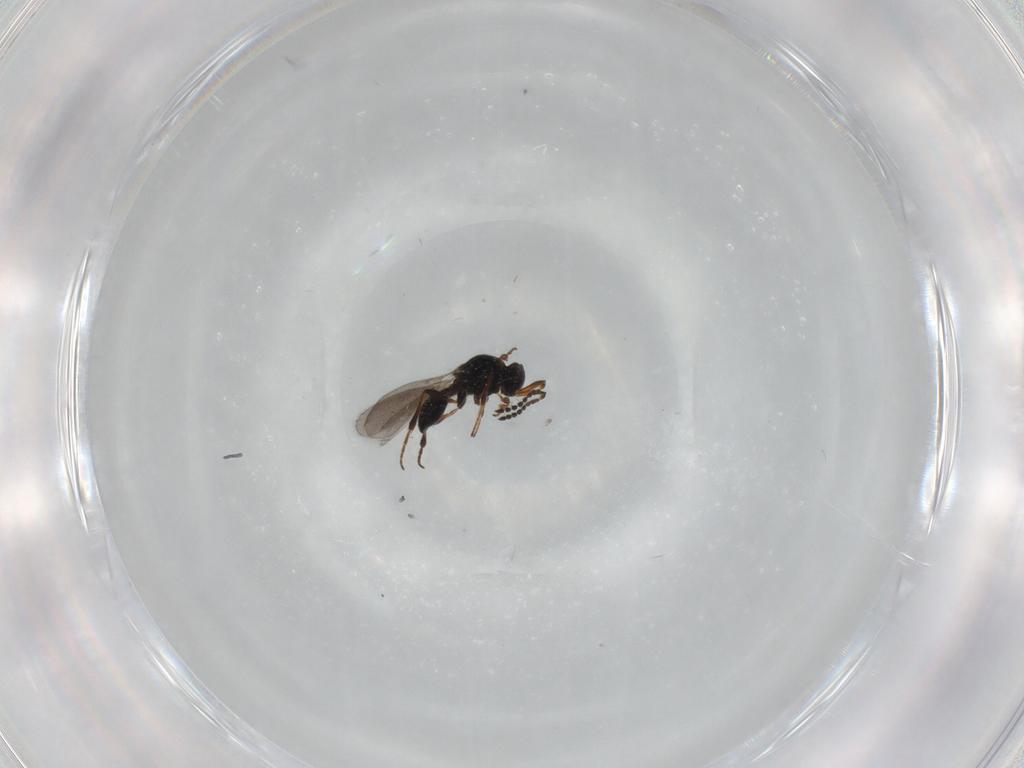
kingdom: Animalia
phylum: Arthropoda
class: Insecta
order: Hymenoptera
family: Platygastridae
